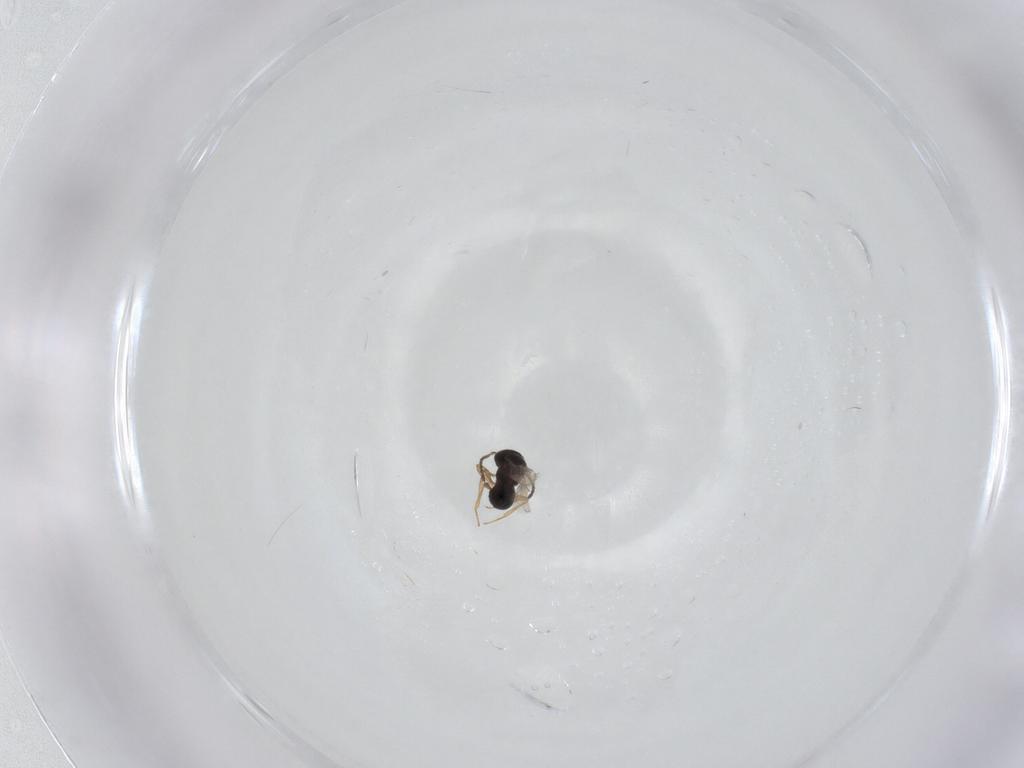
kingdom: Animalia
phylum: Arthropoda
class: Insecta
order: Hymenoptera
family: Scelionidae
